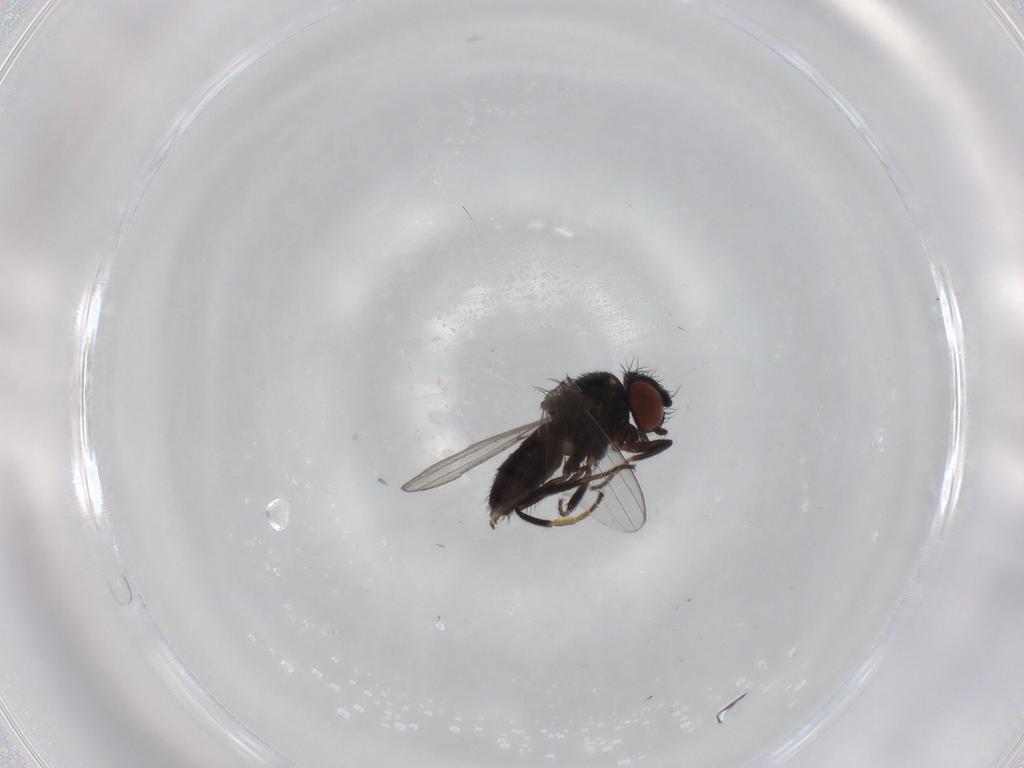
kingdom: Animalia
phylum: Arthropoda
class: Insecta
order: Diptera
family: Milichiidae
